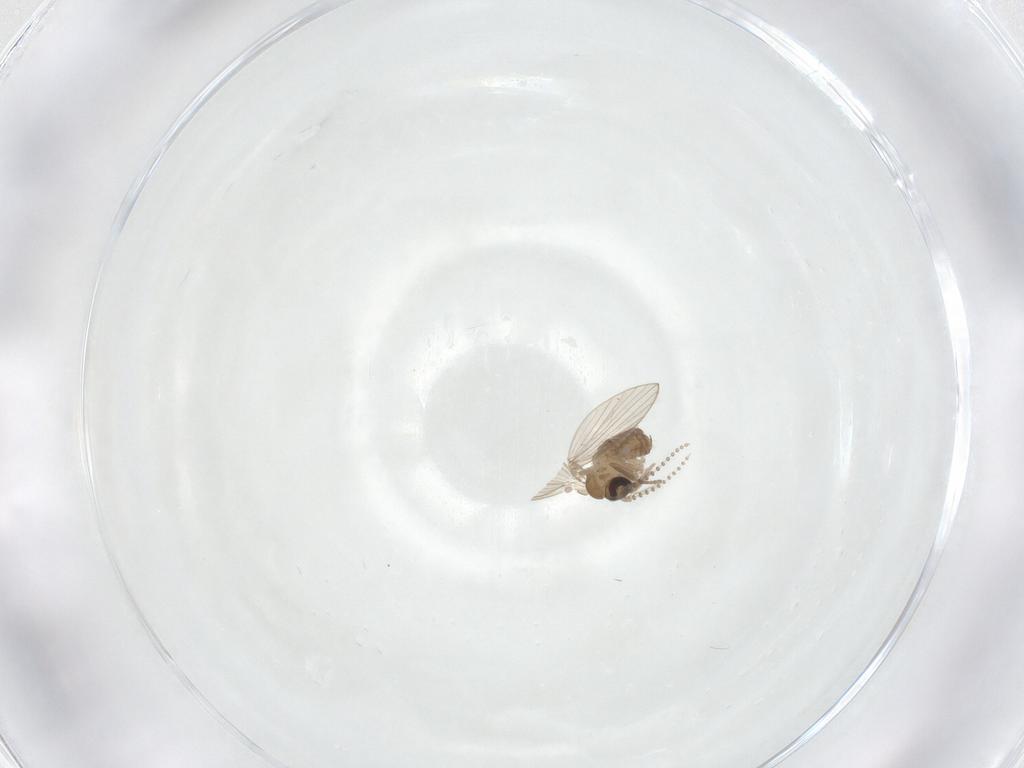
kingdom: Animalia
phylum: Arthropoda
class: Insecta
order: Diptera
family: Psychodidae
